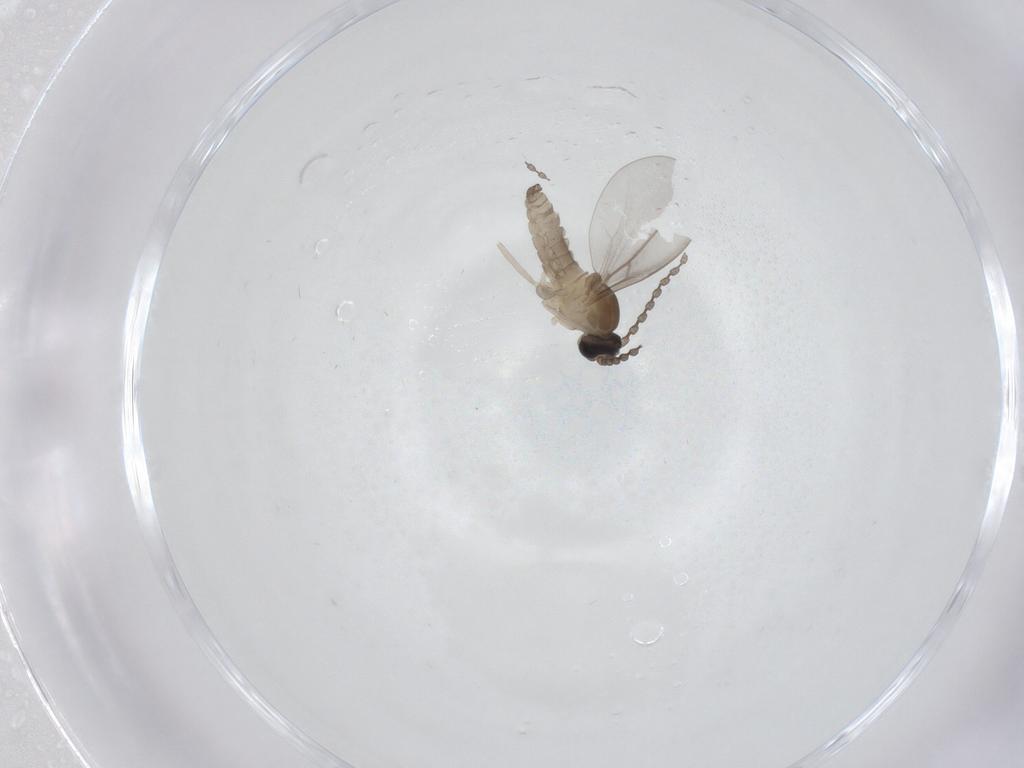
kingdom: Animalia
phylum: Arthropoda
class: Insecta
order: Diptera
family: Cecidomyiidae
